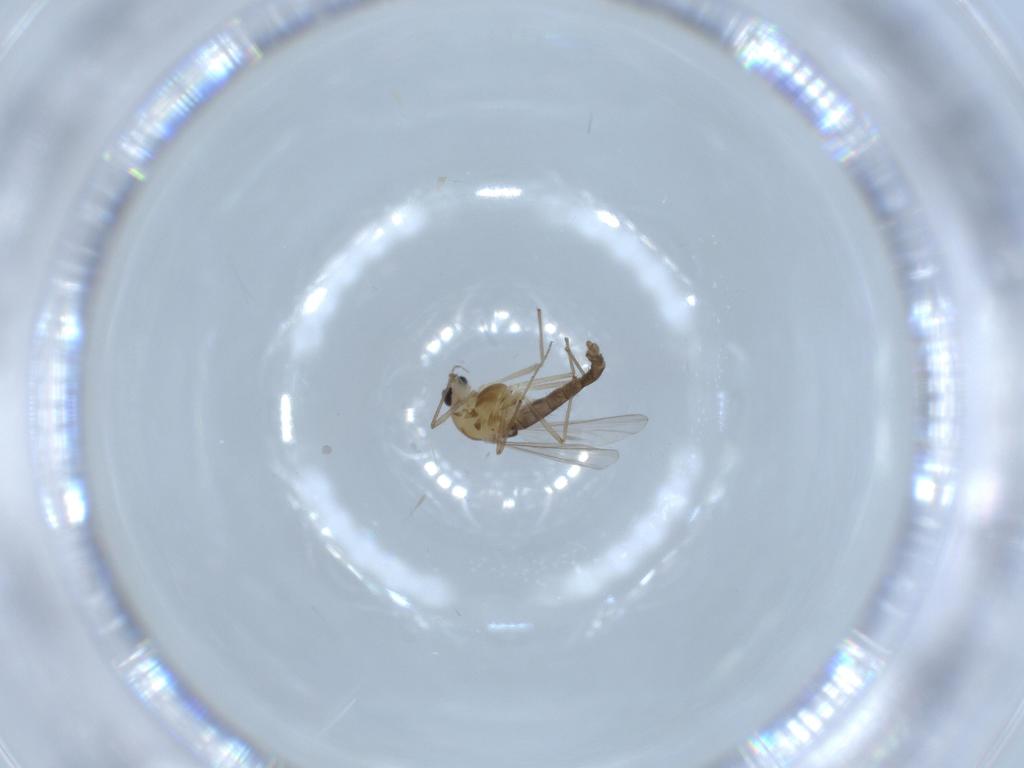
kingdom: Animalia
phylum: Arthropoda
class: Insecta
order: Diptera
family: Chironomidae
